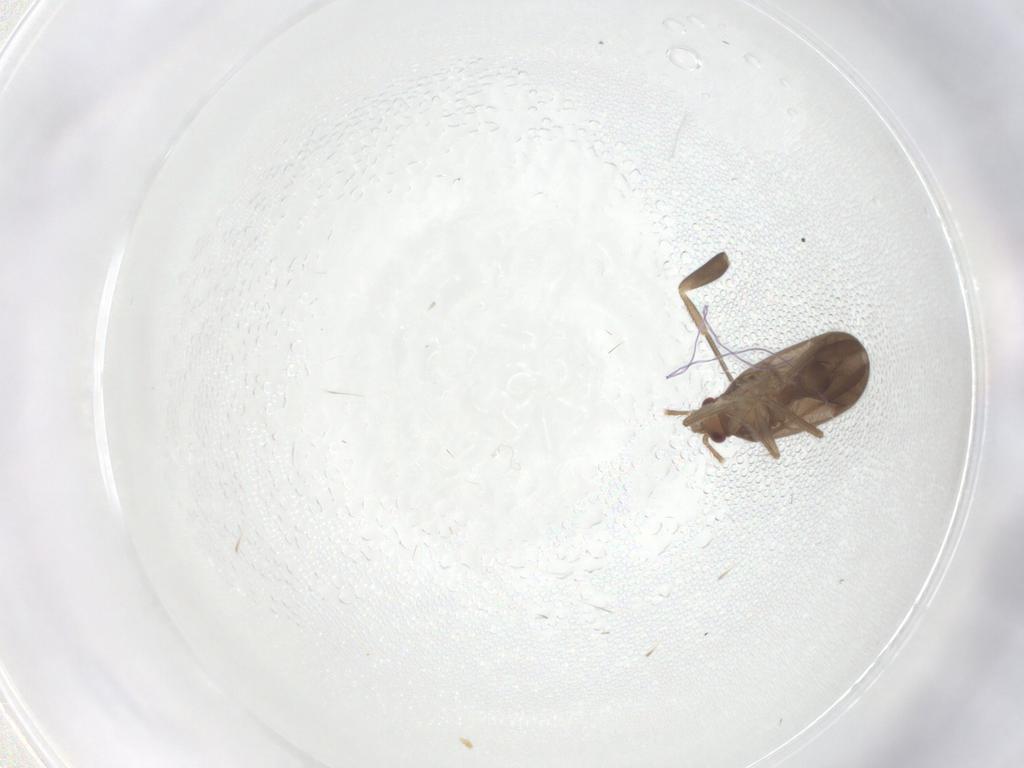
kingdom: Animalia
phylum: Arthropoda
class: Insecta
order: Hemiptera
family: Ceratocombidae
